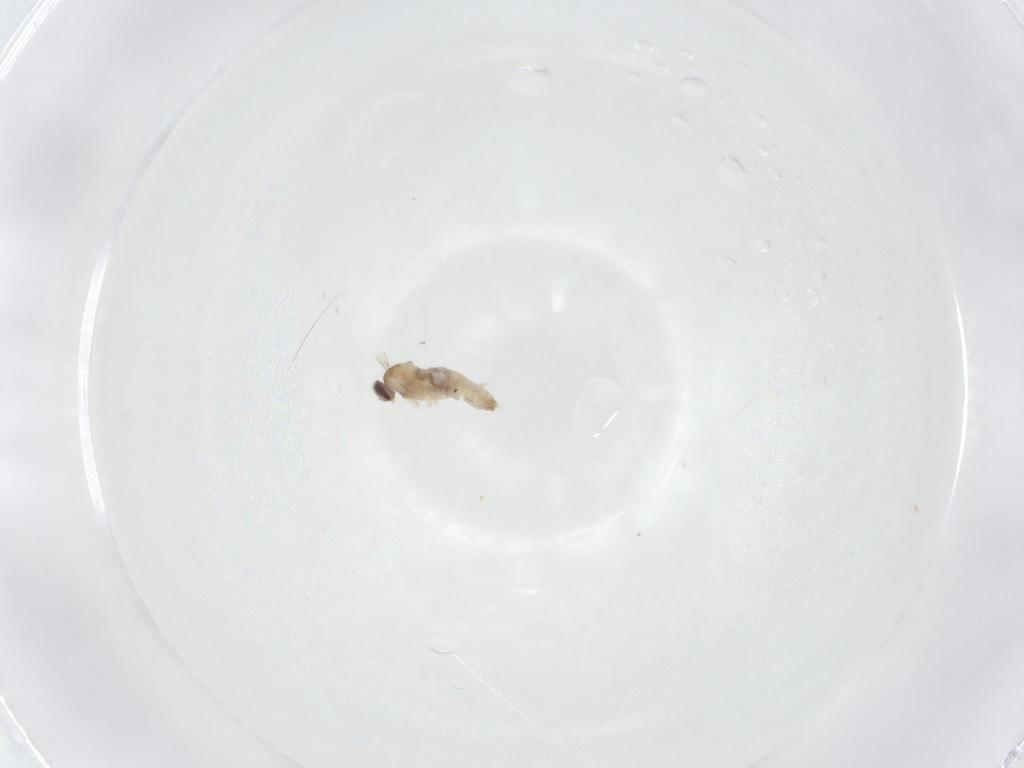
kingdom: Animalia
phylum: Arthropoda
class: Insecta
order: Diptera
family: Cecidomyiidae
